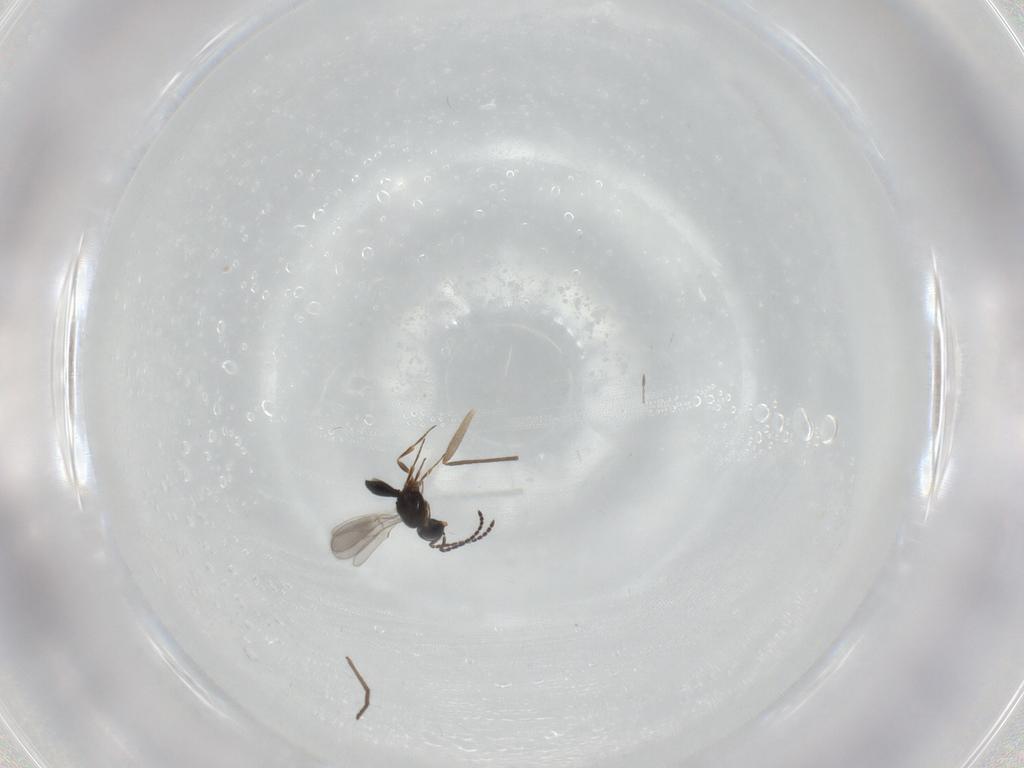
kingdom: Animalia
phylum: Arthropoda
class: Insecta
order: Hymenoptera
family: Scelionidae
